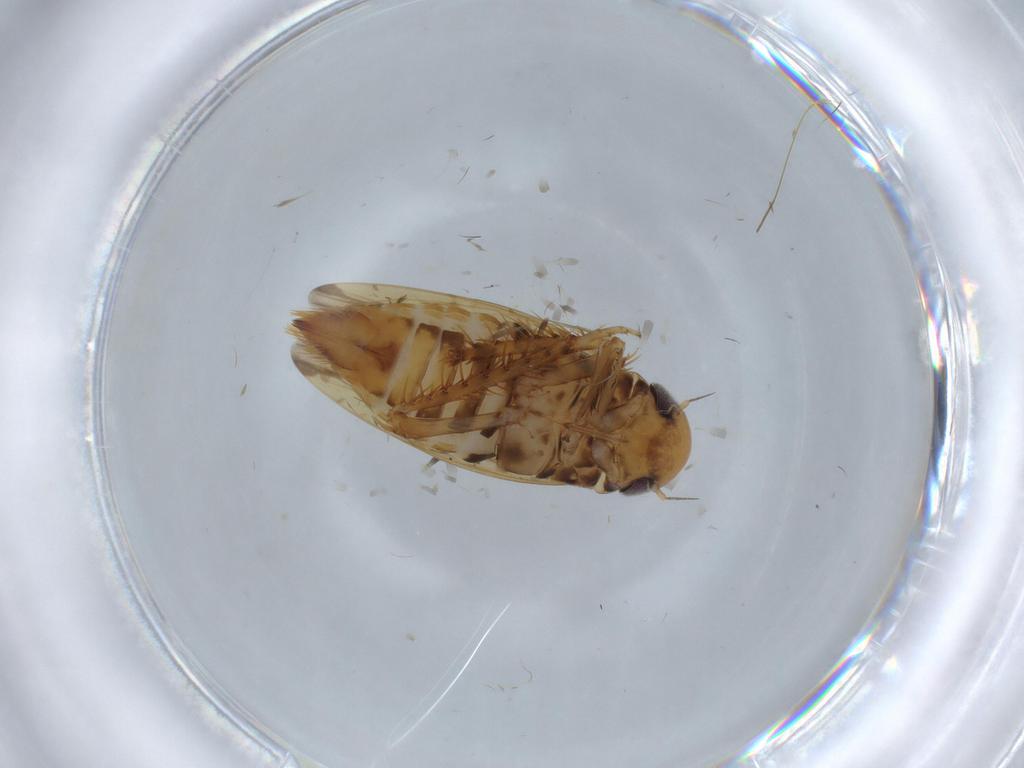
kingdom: Animalia
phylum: Arthropoda
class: Insecta
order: Hemiptera
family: Cicadellidae
